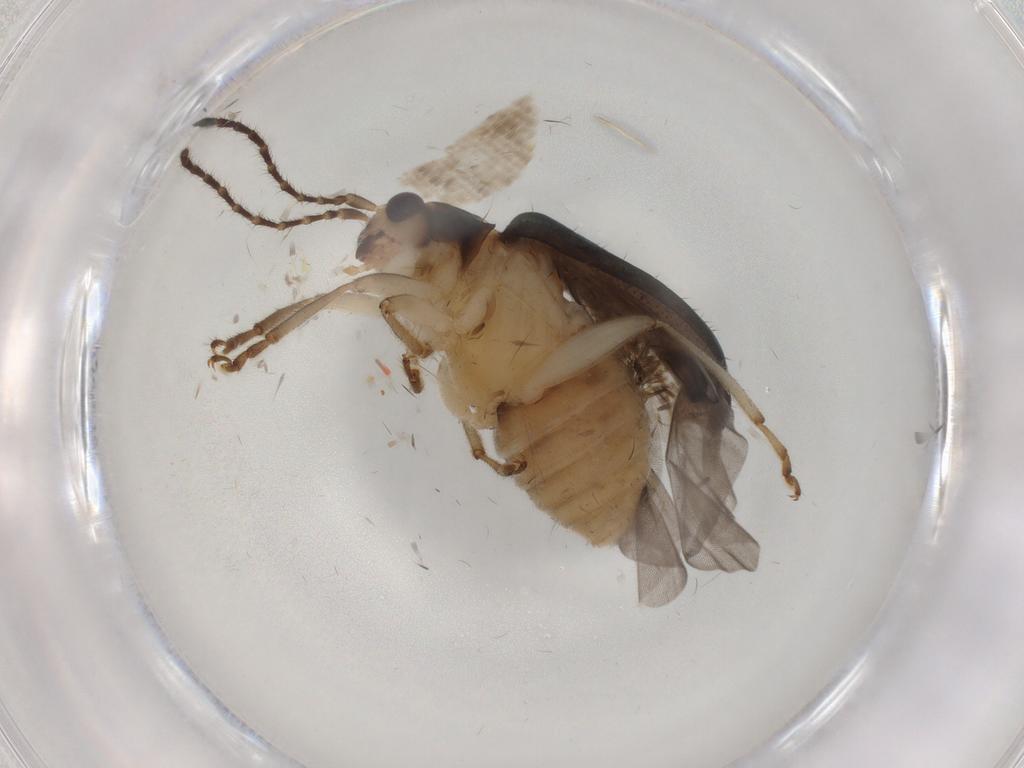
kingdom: Animalia
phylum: Arthropoda
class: Insecta
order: Coleoptera
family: Chrysomelidae
